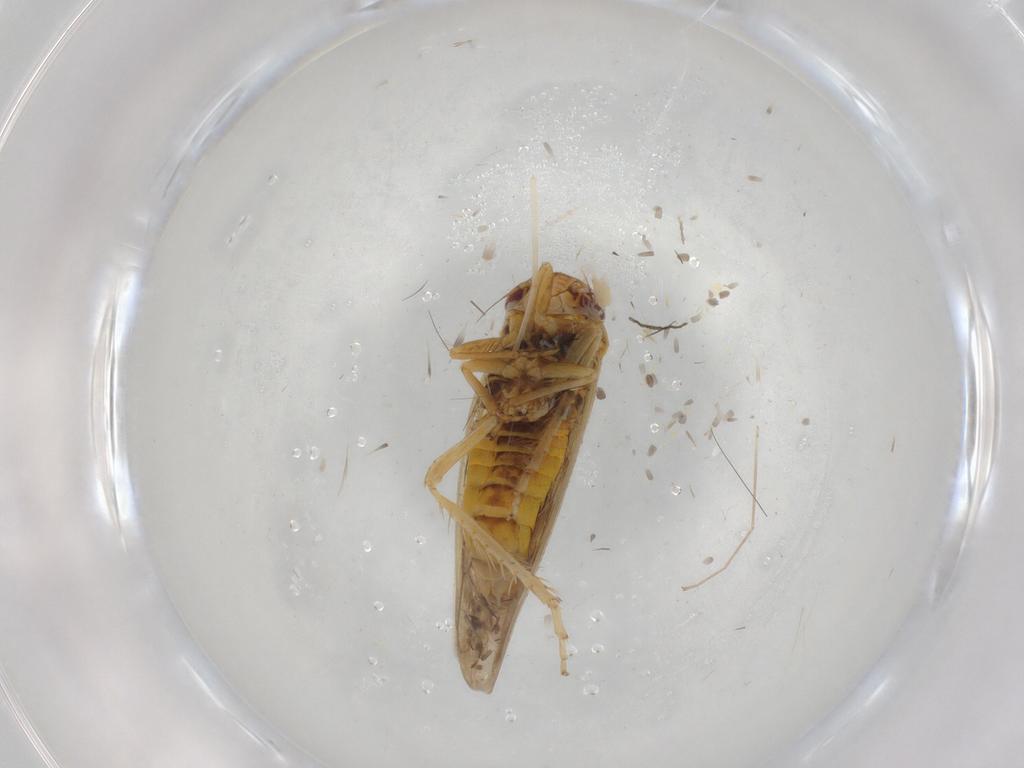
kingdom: Animalia
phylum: Arthropoda
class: Insecta
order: Hemiptera
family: Cicadellidae
